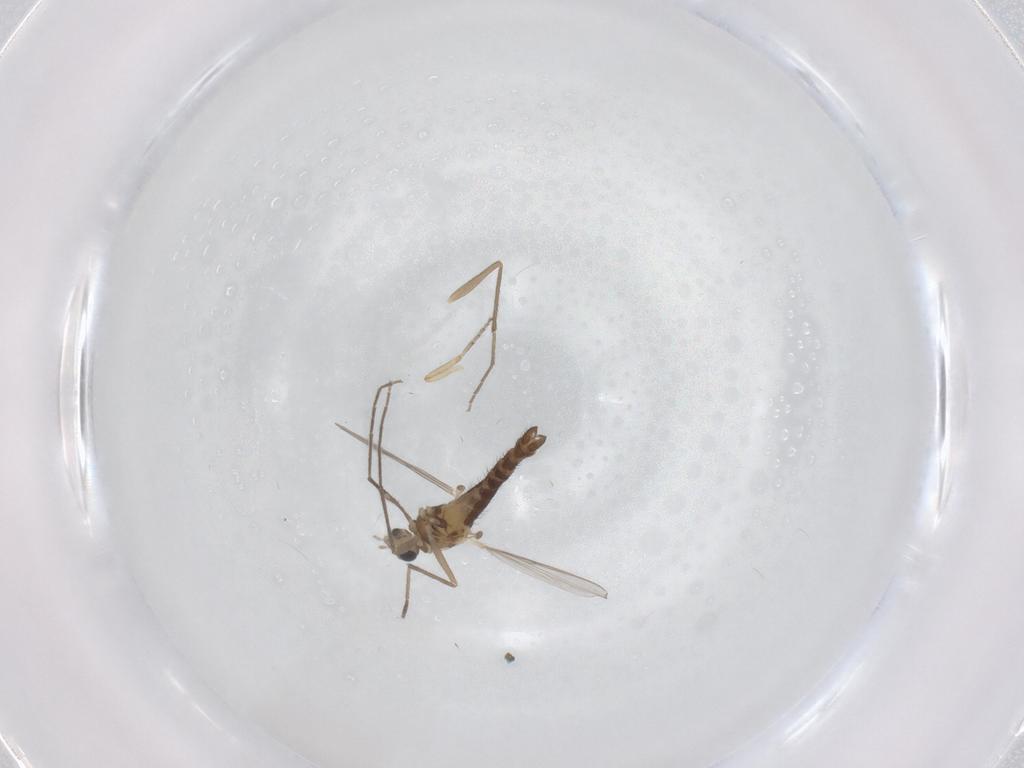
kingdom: Animalia
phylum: Arthropoda
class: Insecta
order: Diptera
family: Chironomidae
